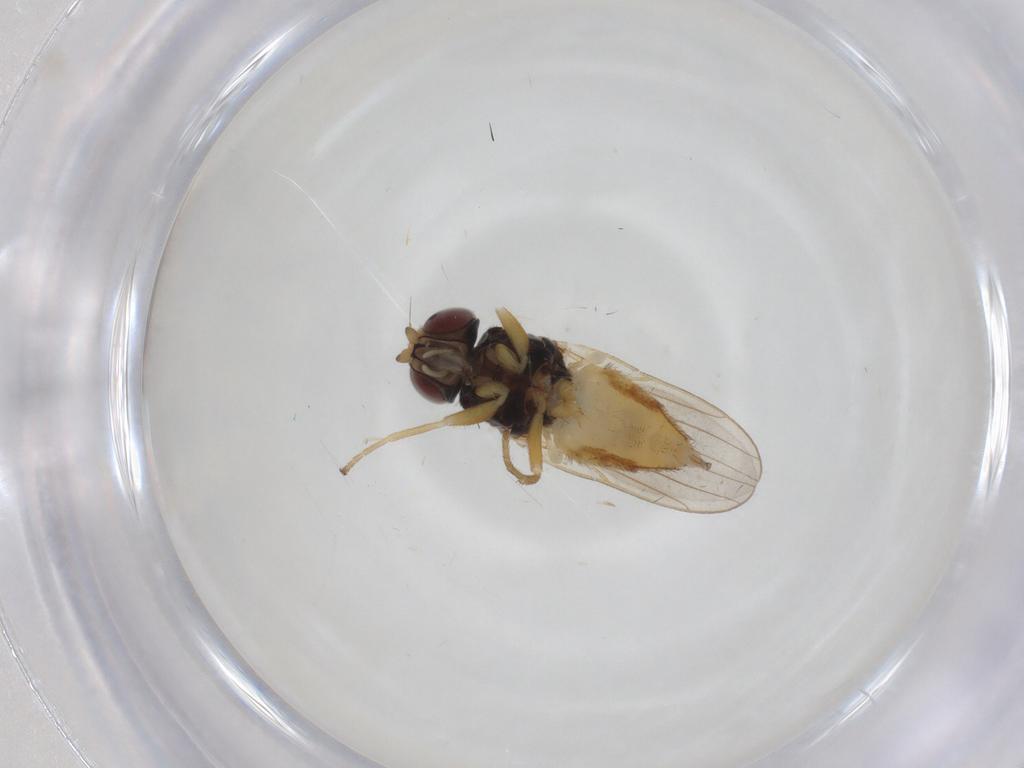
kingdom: Animalia
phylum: Arthropoda
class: Insecta
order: Diptera
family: Chloropidae
